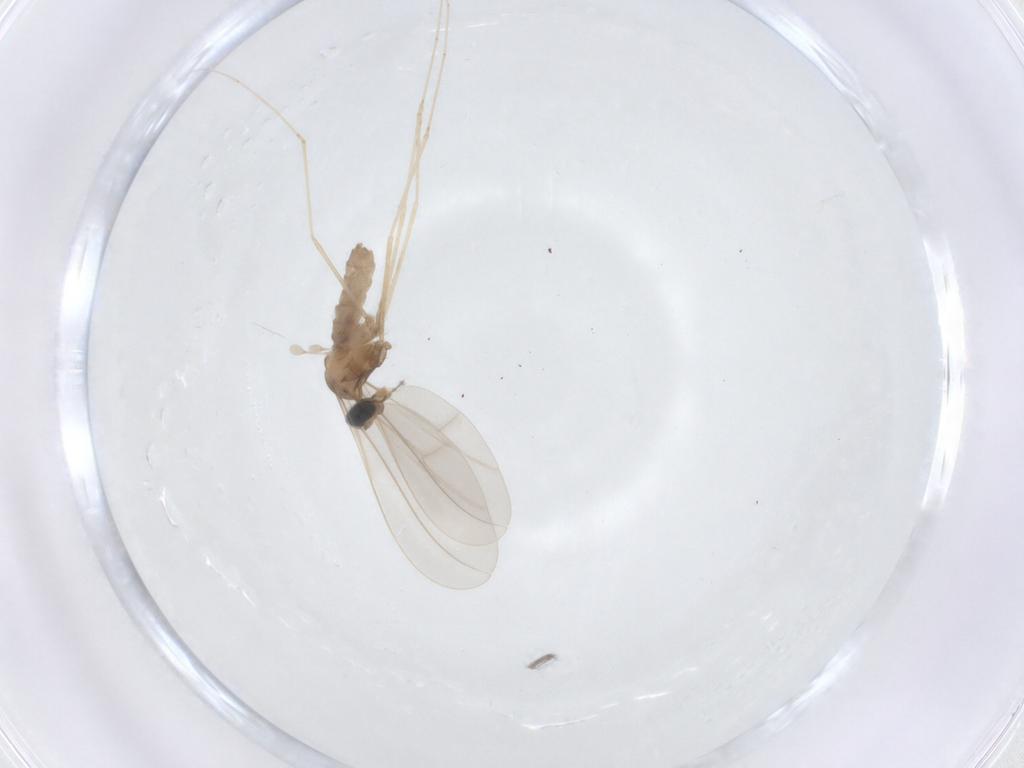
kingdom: Animalia
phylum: Arthropoda
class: Insecta
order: Diptera
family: Cecidomyiidae
